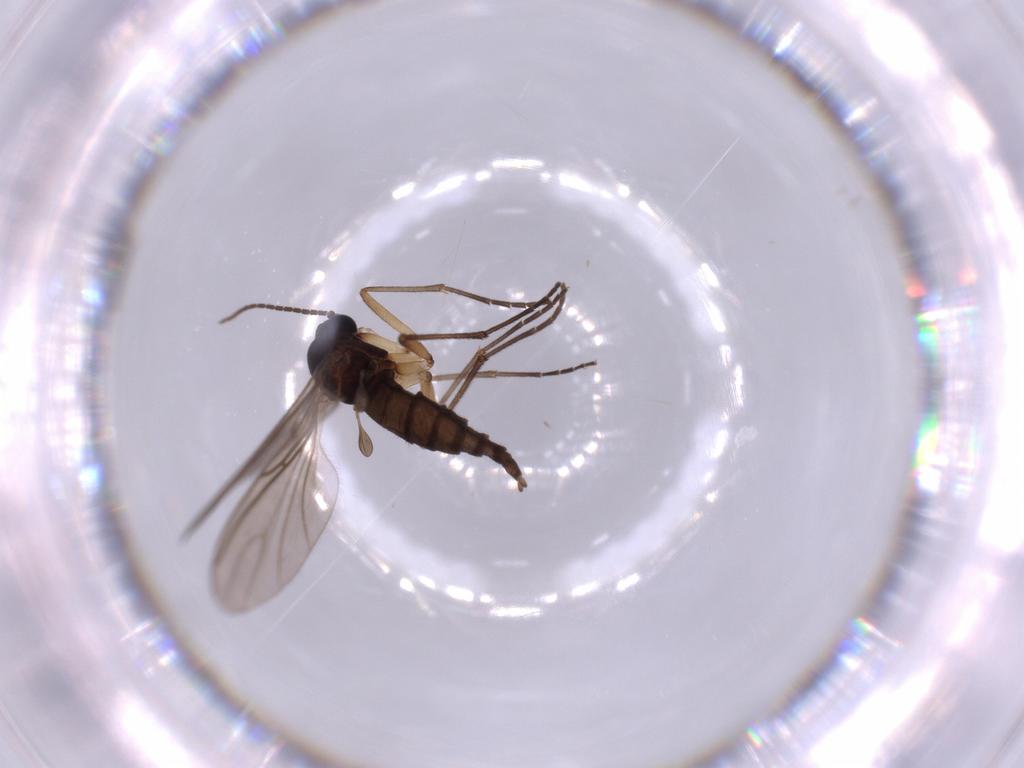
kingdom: Animalia
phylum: Arthropoda
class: Insecta
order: Diptera
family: Sciaridae
